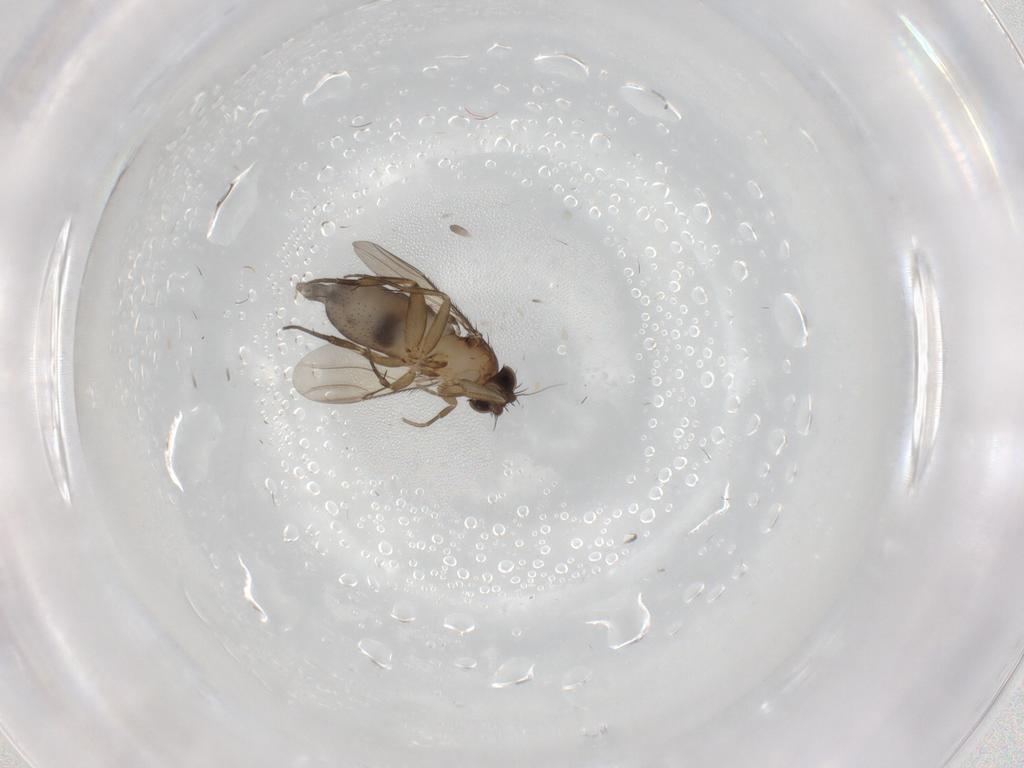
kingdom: Animalia
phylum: Arthropoda
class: Insecta
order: Diptera
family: Phoridae
